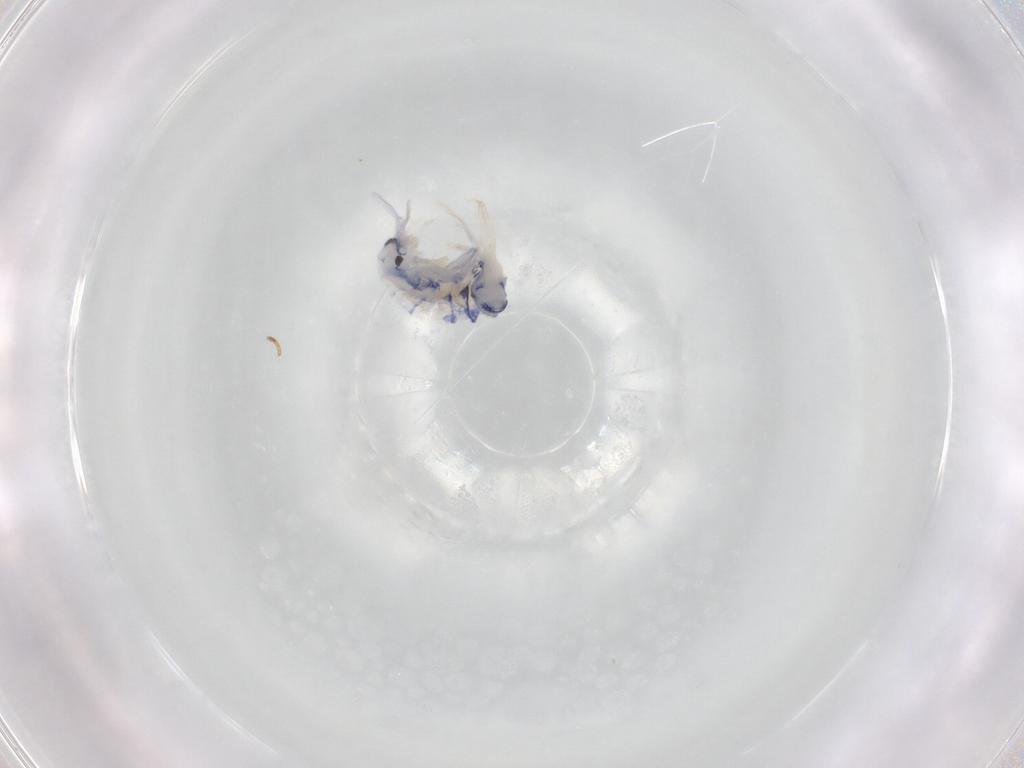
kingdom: Animalia
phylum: Arthropoda
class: Collembola
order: Entomobryomorpha
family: Entomobryidae
